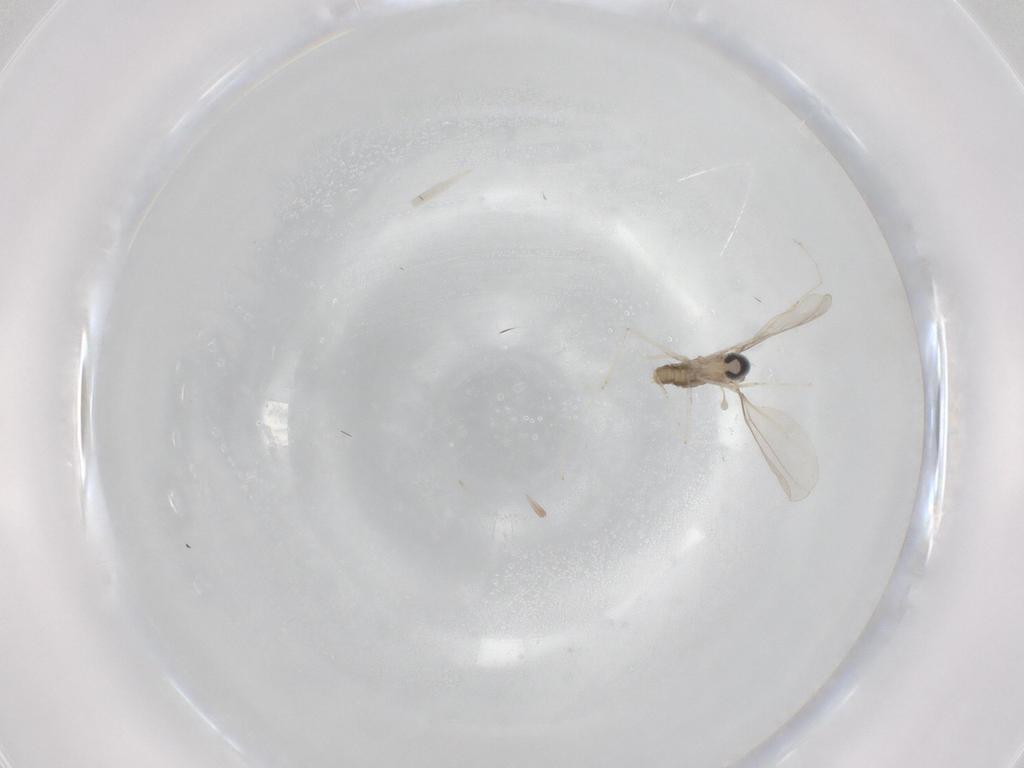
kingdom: Animalia
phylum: Arthropoda
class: Insecta
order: Diptera
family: Cecidomyiidae
